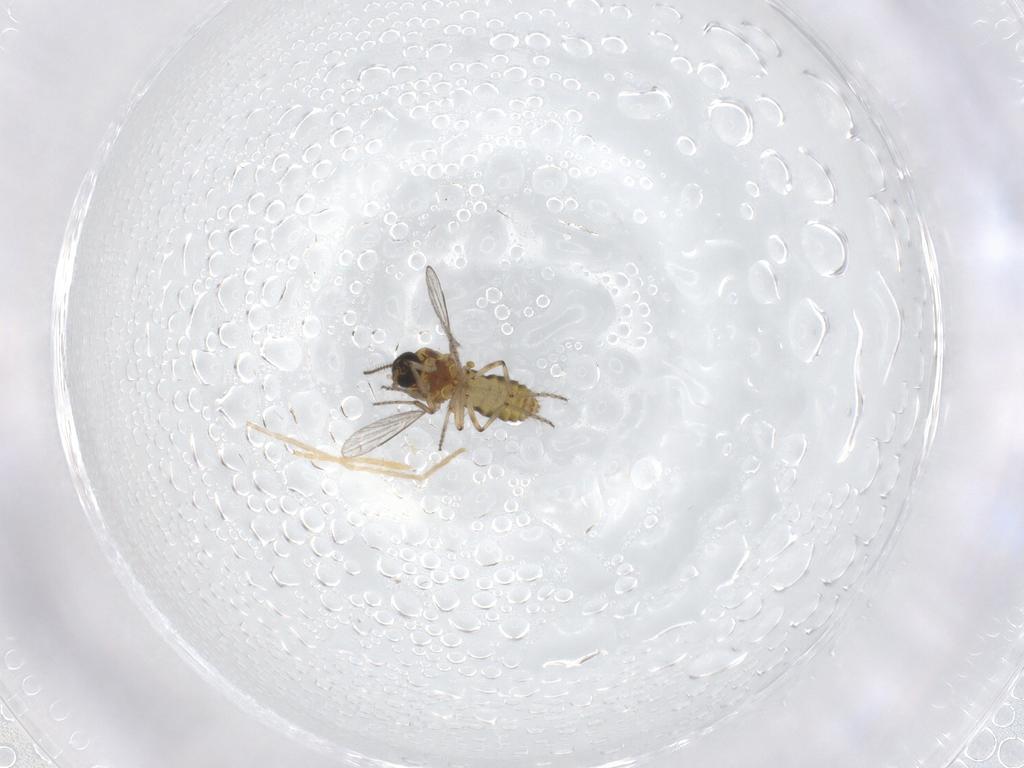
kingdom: Animalia
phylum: Arthropoda
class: Insecta
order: Diptera
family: Ceratopogonidae
